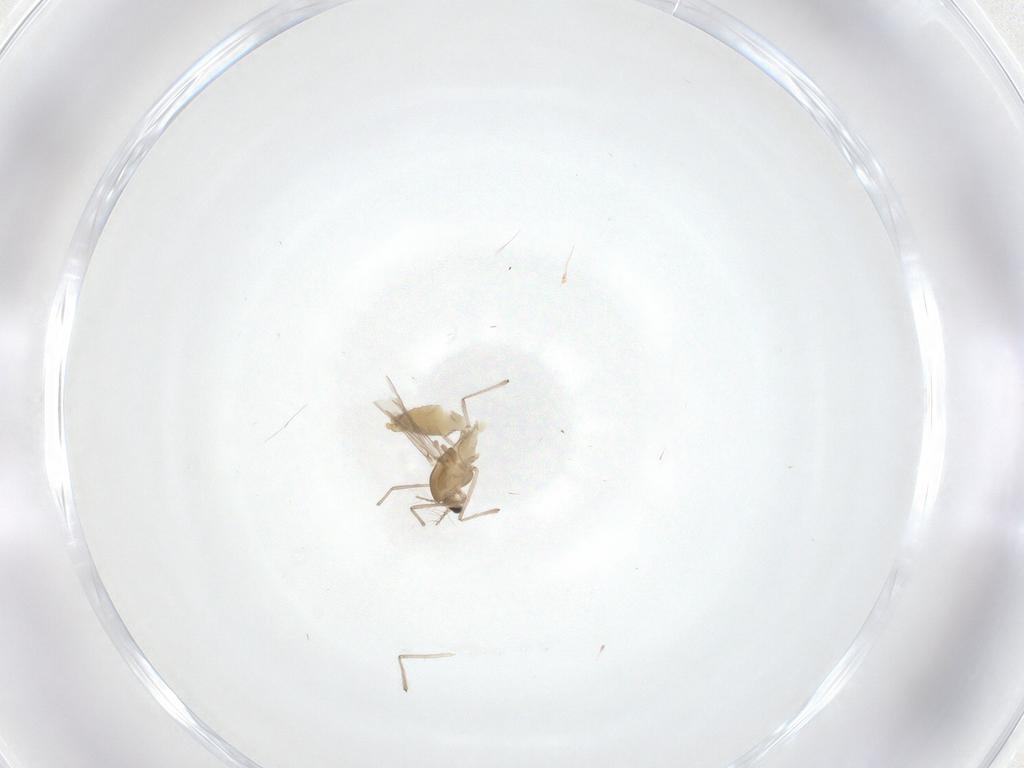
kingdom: Animalia
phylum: Arthropoda
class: Insecta
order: Diptera
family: Chironomidae
